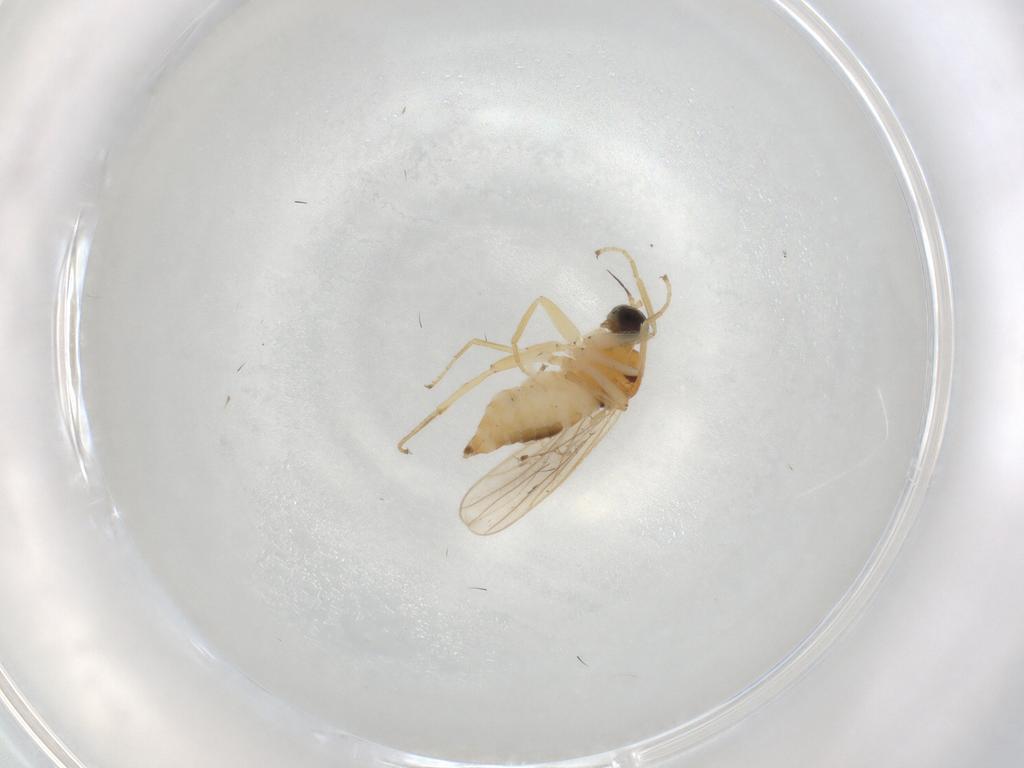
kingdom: Animalia
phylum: Arthropoda
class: Insecta
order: Diptera
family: Hybotidae
